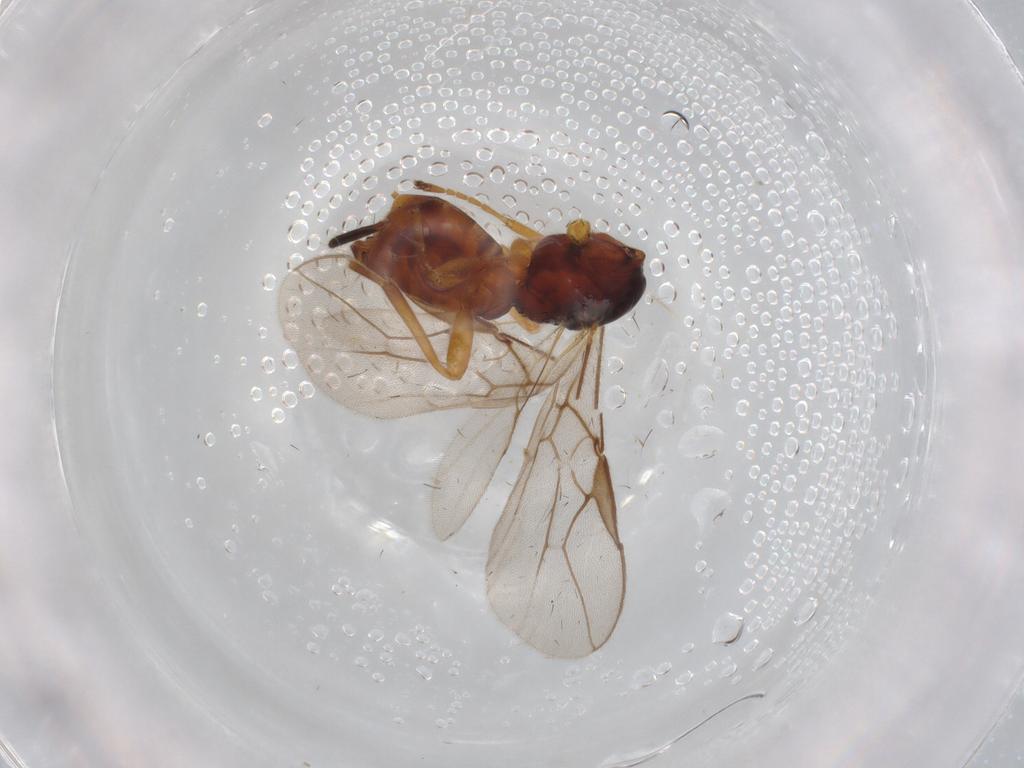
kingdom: Animalia
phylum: Arthropoda
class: Insecta
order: Hymenoptera
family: Braconidae
